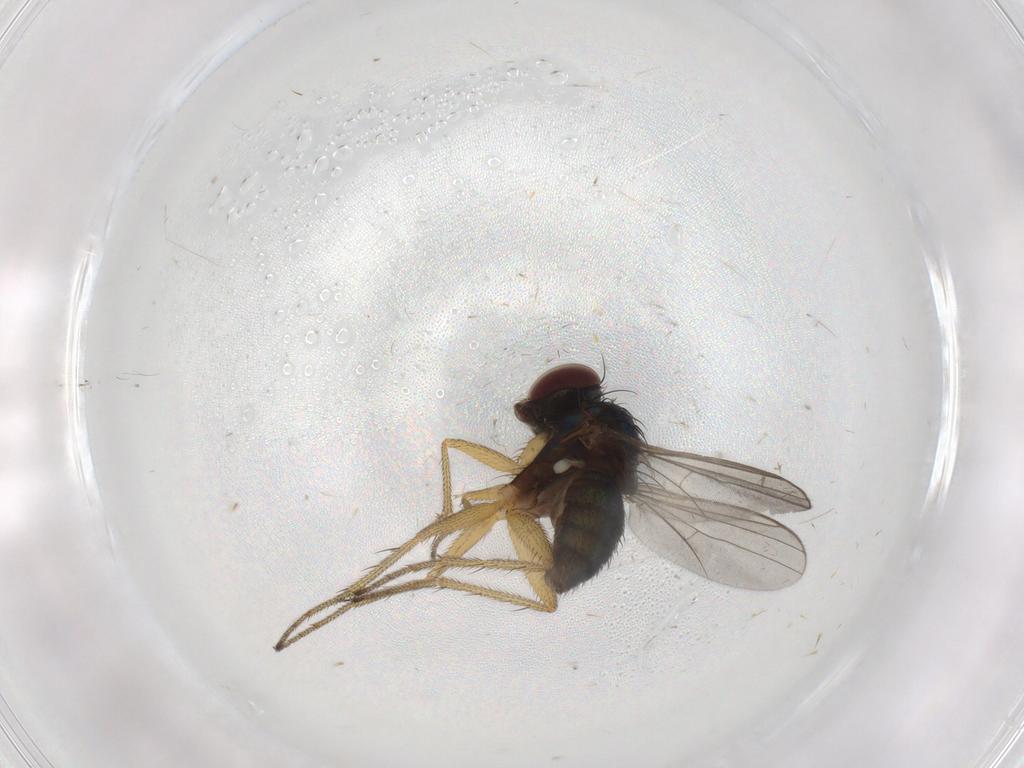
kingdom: Animalia
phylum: Arthropoda
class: Insecta
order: Diptera
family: Dolichopodidae
